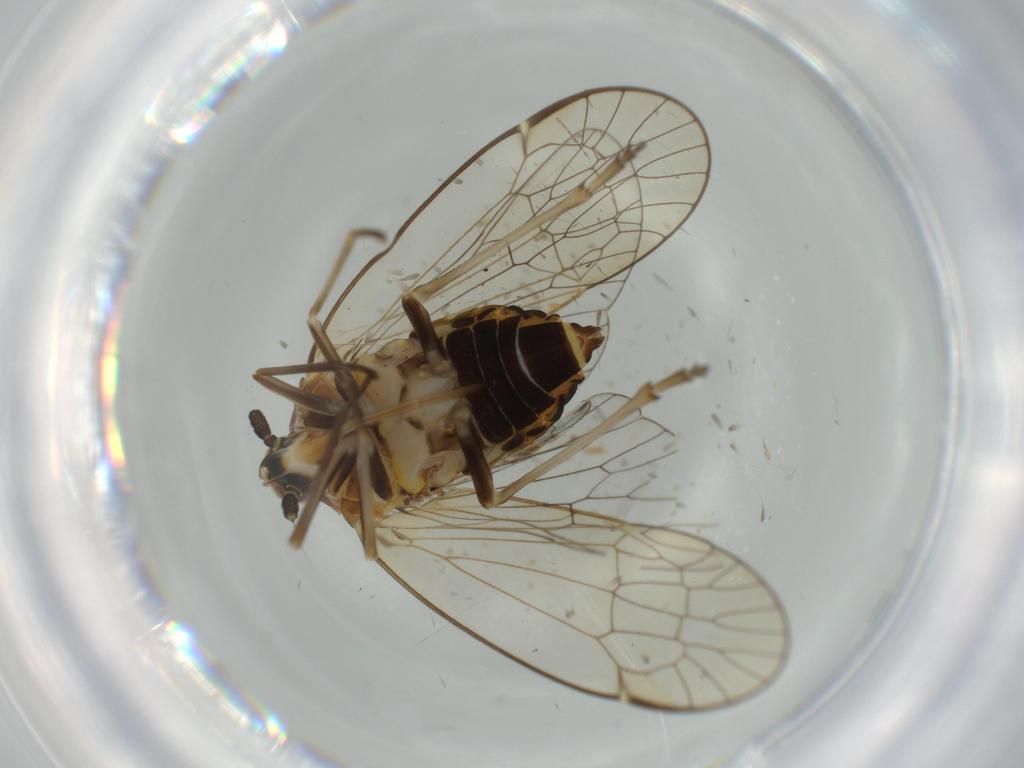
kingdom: Animalia
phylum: Arthropoda
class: Insecta
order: Hemiptera
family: Kinnaridae
